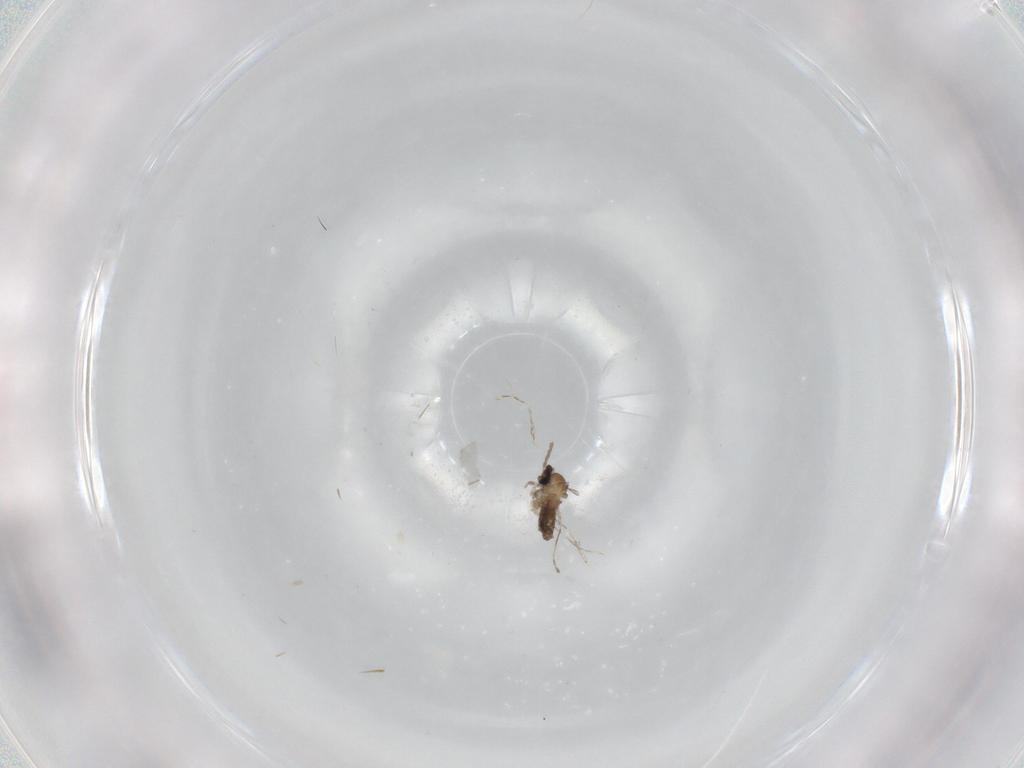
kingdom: Animalia
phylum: Arthropoda
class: Insecta
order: Diptera
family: Cecidomyiidae
